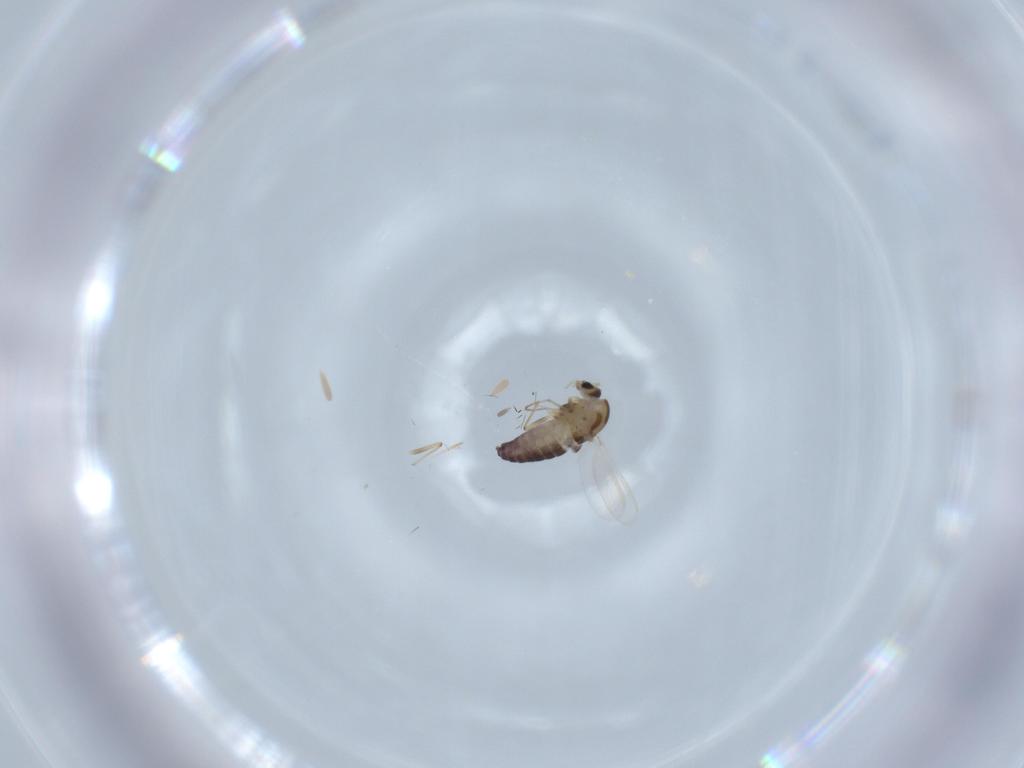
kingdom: Animalia
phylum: Arthropoda
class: Insecta
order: Diptera
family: Chironomidae
